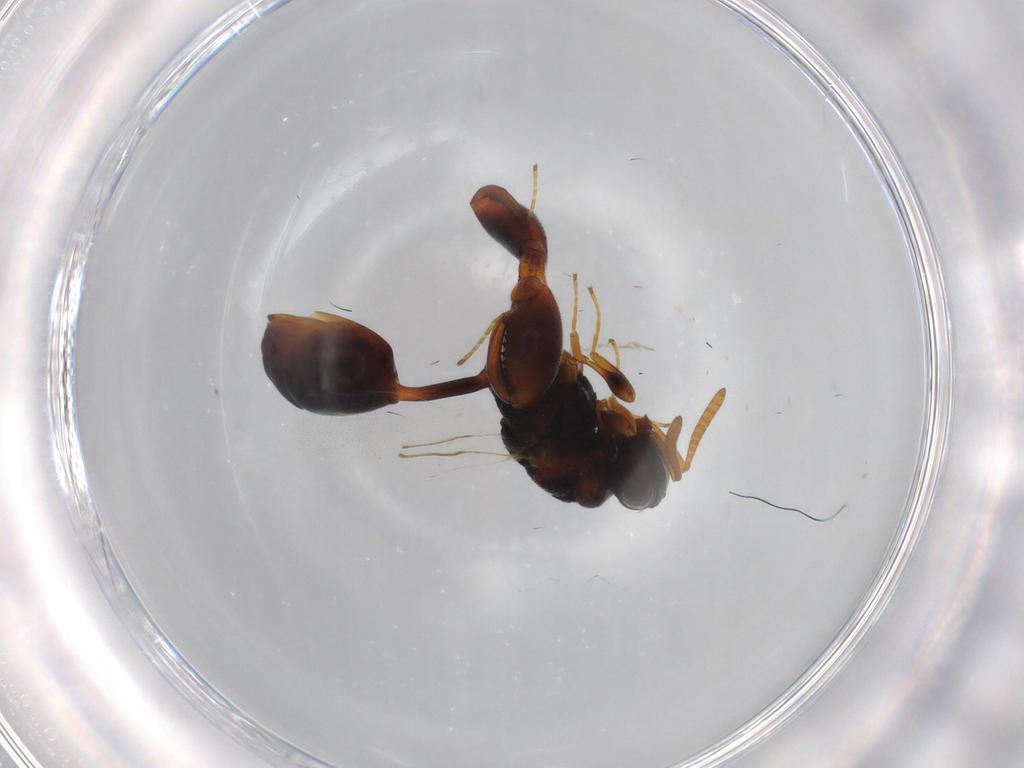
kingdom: Animalia
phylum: Arthropoda
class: Insecta
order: Hymenoptera
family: Chalcididae
